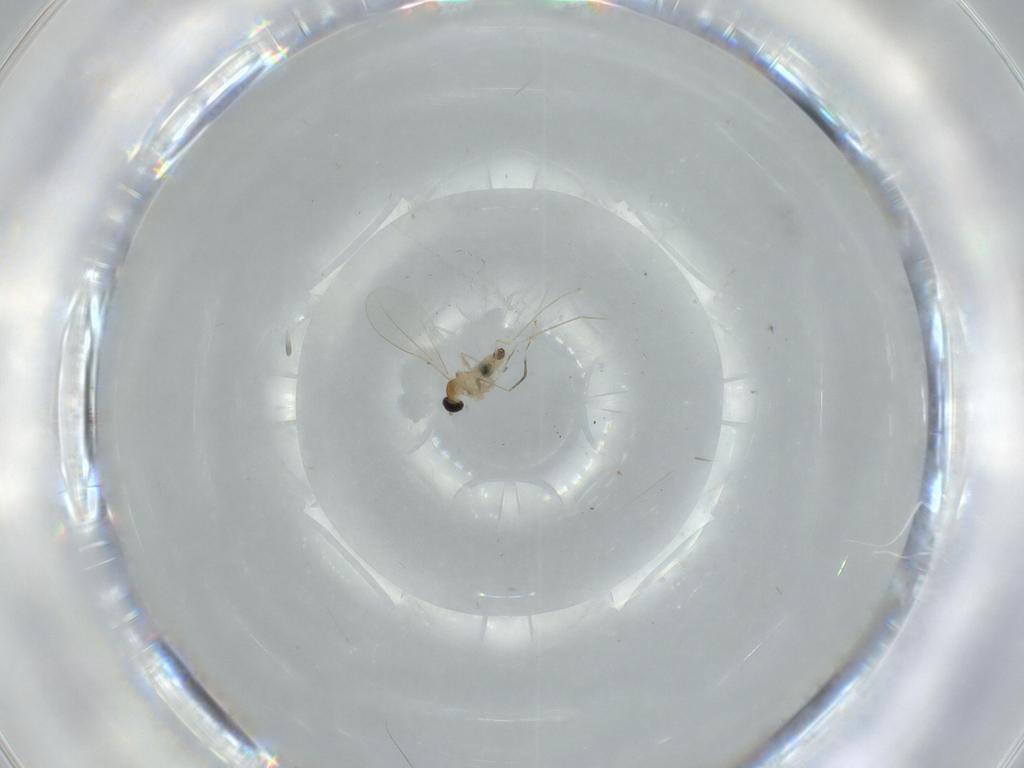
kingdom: Animalia
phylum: Arthropoda
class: Insecta
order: Diptera
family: Cecidomyiidae
